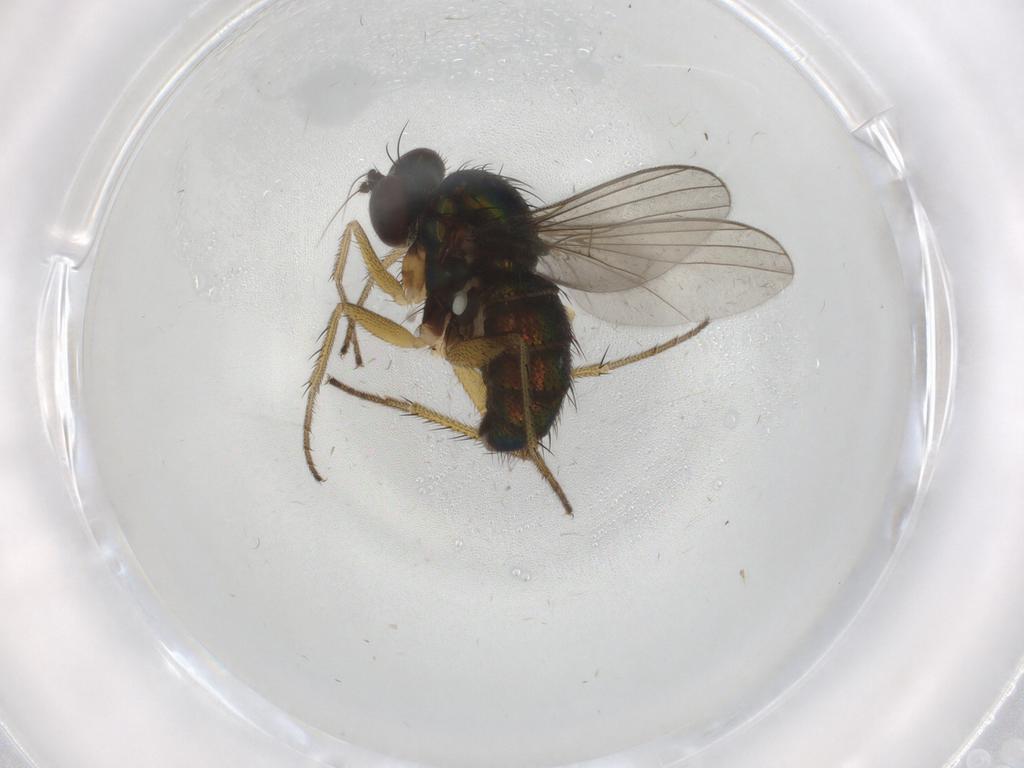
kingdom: Animalia
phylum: Arthropoda
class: Insecta
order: Diptera
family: Dolichopodidae
